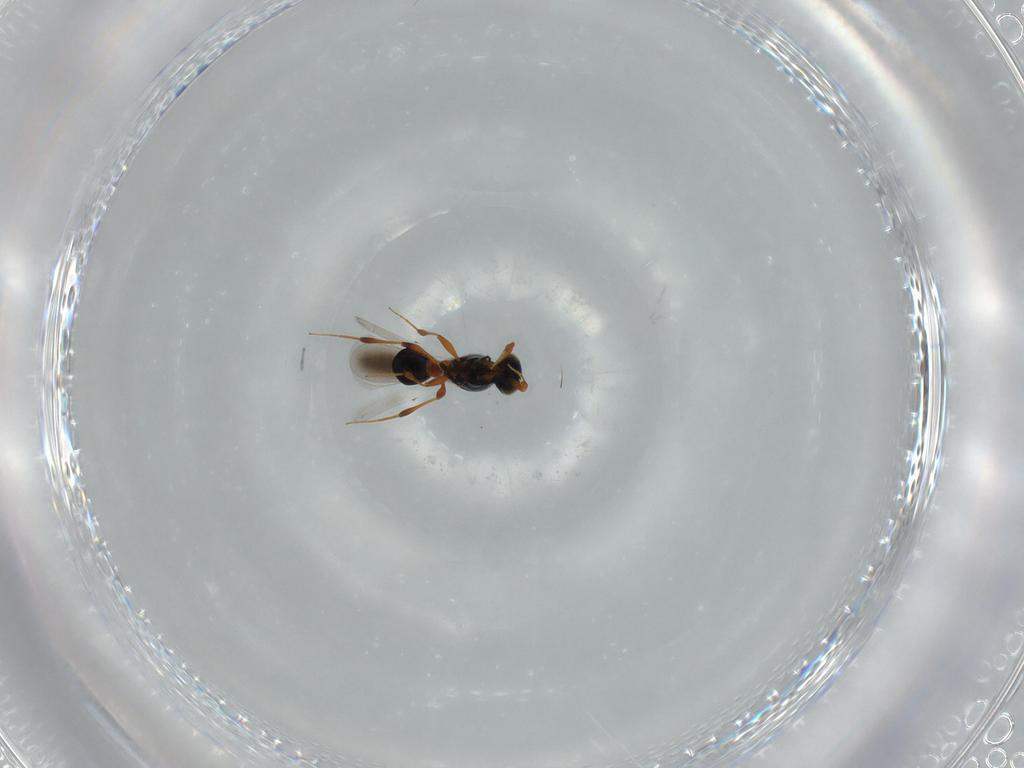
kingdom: Animalia
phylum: Arthropoda
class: Insecta
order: Hymenoptera
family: Platygastridae
